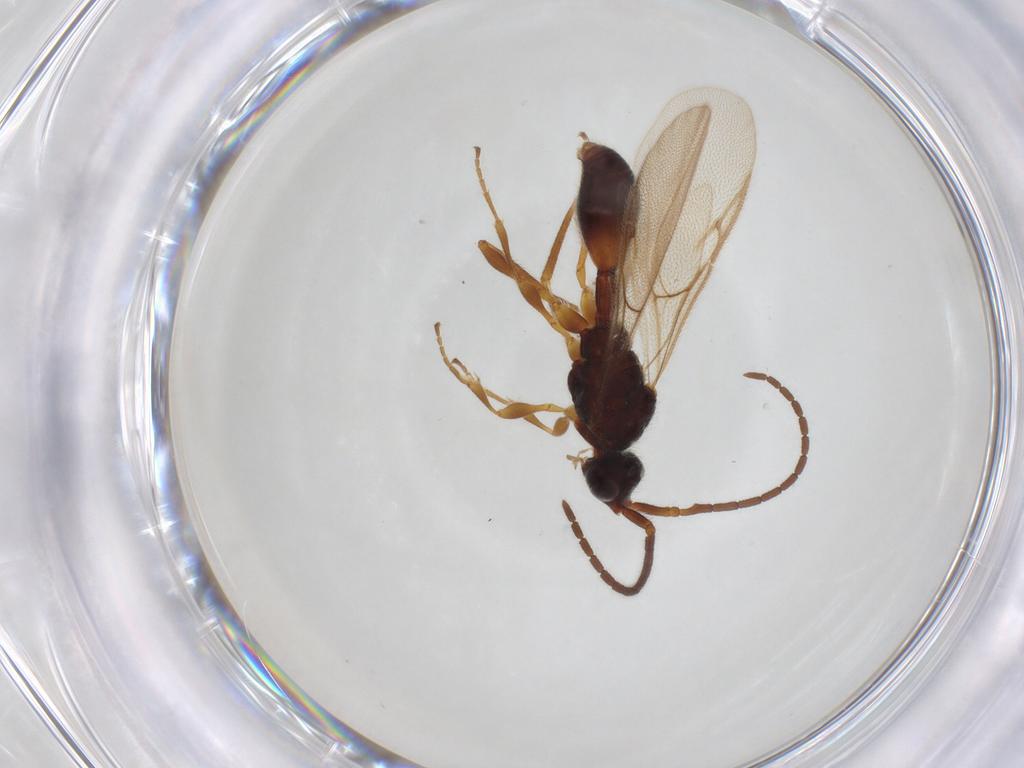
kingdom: Animalia
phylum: Arthropoda
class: Insecta
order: Hymenoptera
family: Diapriidae
